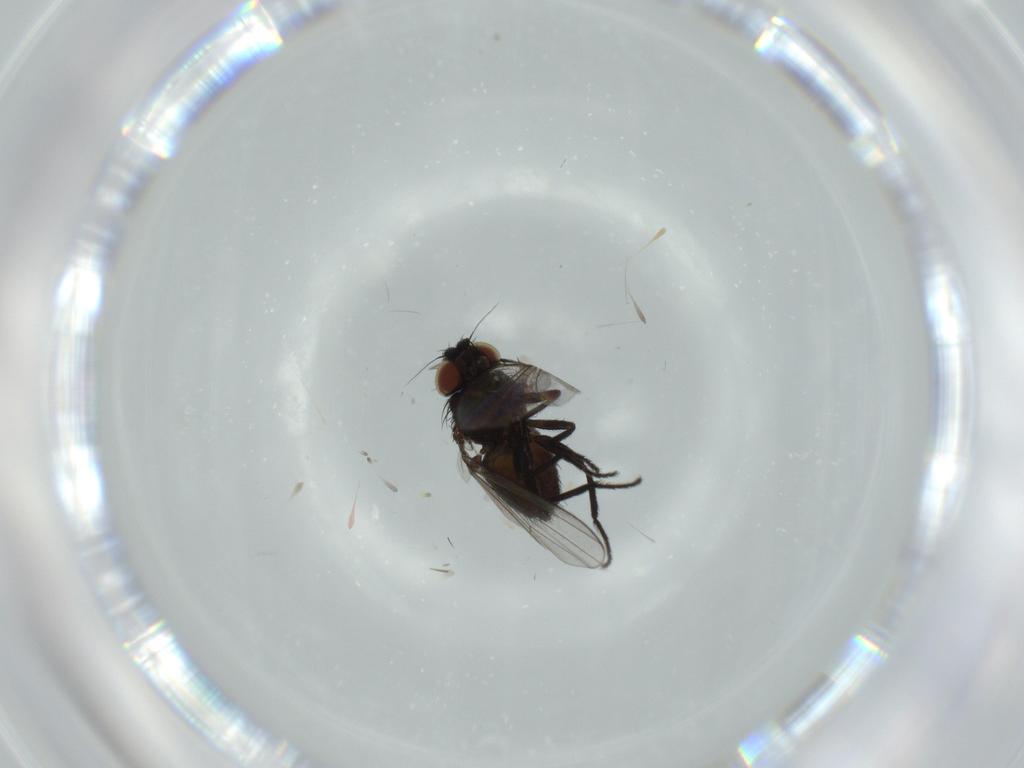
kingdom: Animalia
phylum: Arthropoda
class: Insecta
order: Diptera
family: Milichiidae
